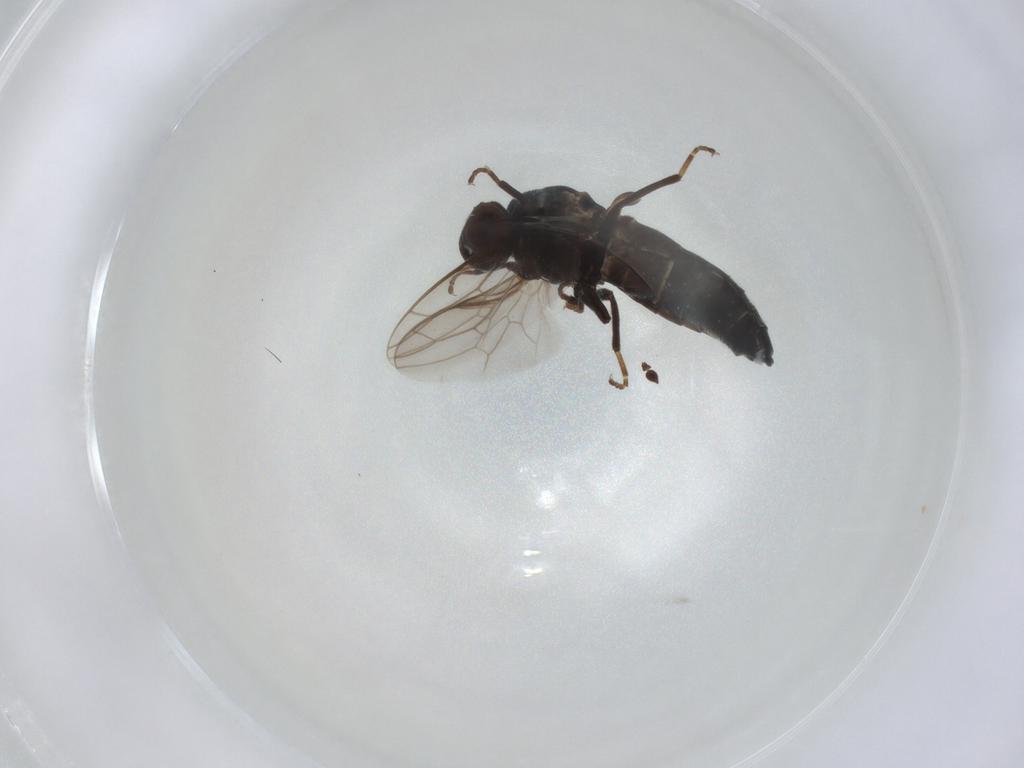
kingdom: Animalia
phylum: Arthropoda
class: Insecta
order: Diptera
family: Scenopinidae
